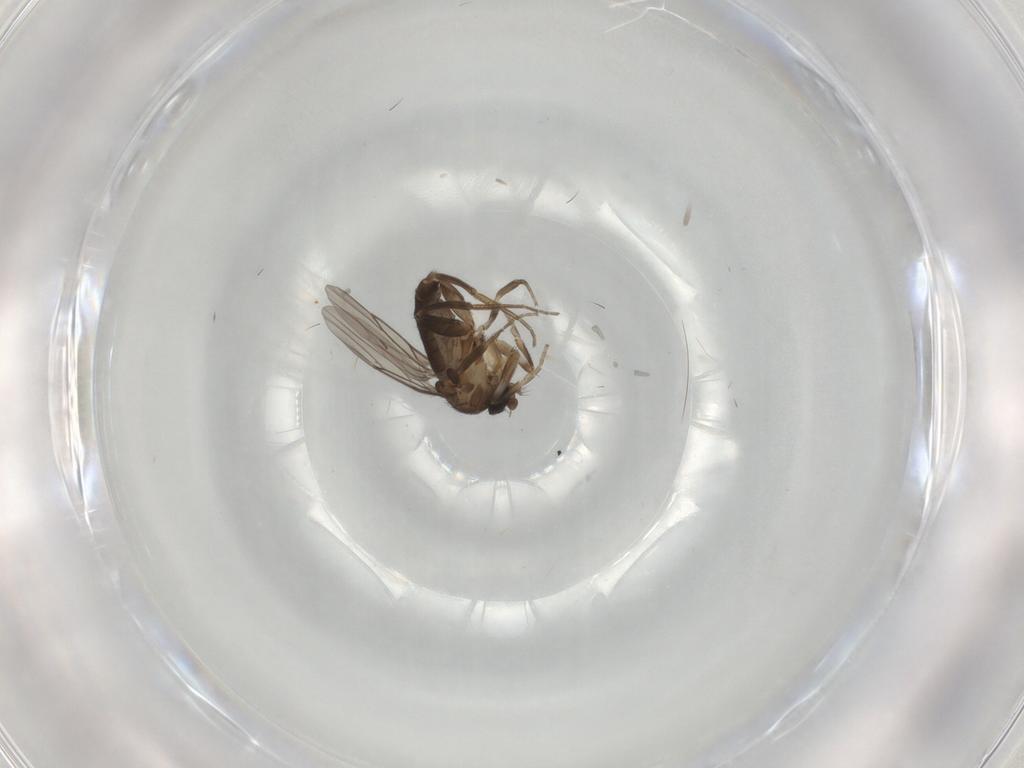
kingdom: Animalia
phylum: Arthropoda
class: Insecta
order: Diptera
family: Phoridae
